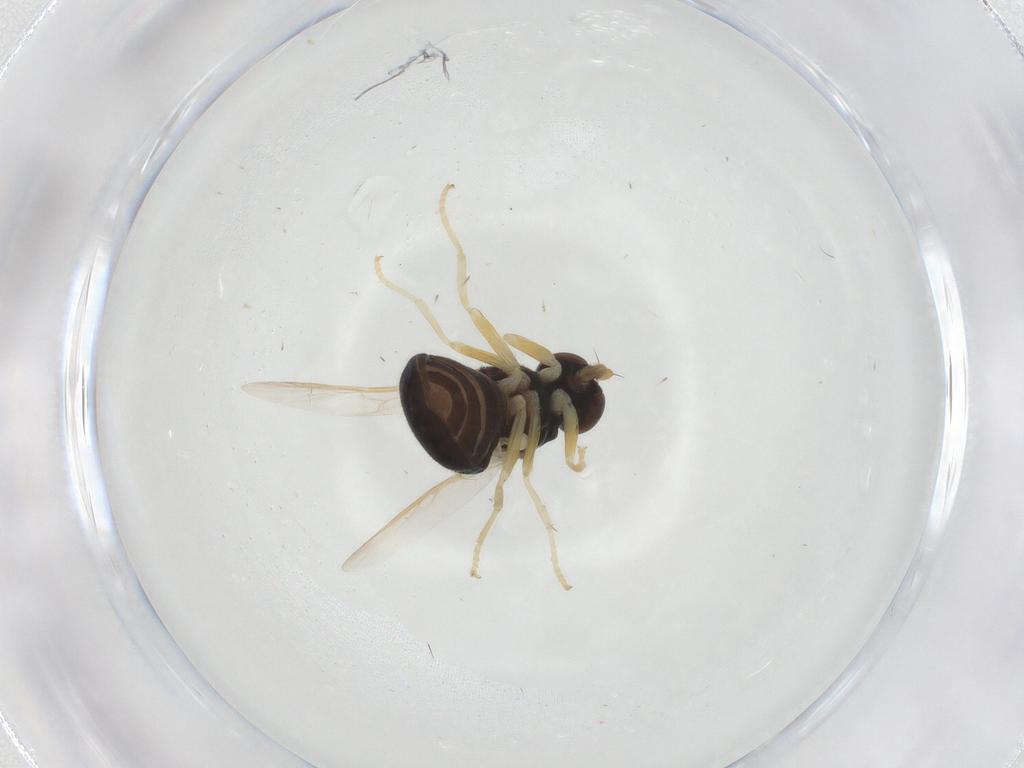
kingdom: Animalia
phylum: Arthropoda
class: Insecta
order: Diptera
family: Stratiomyidae
